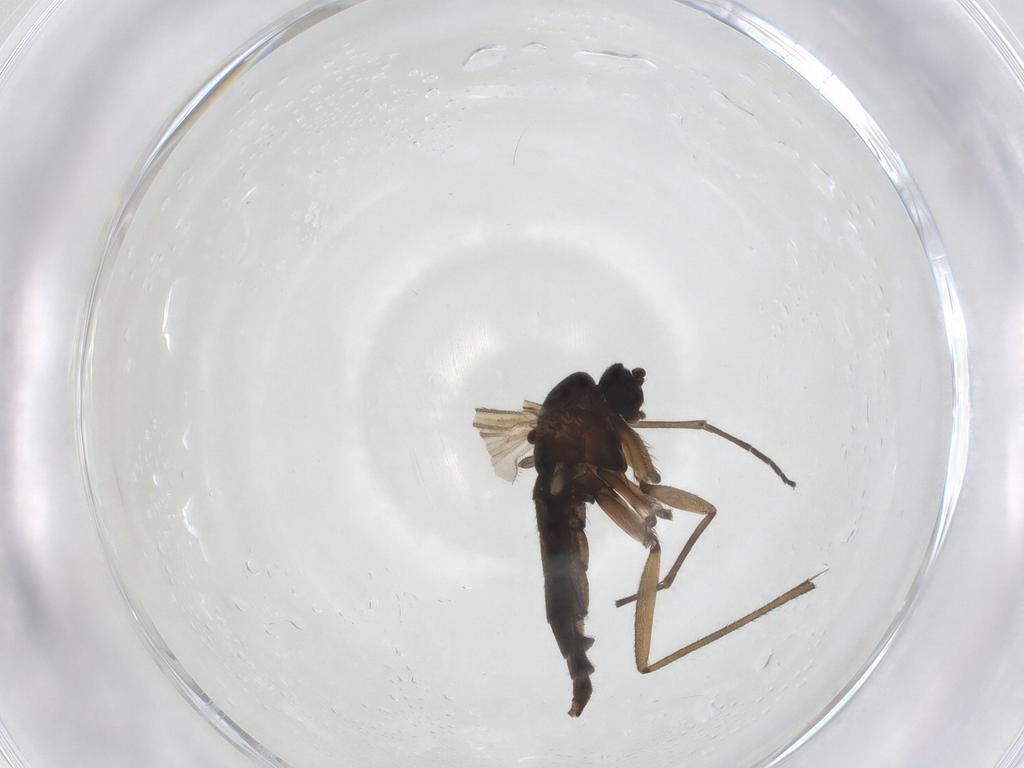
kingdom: Animalia
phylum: Arthropoda
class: Insecta
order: Diptera
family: Sciaridae
